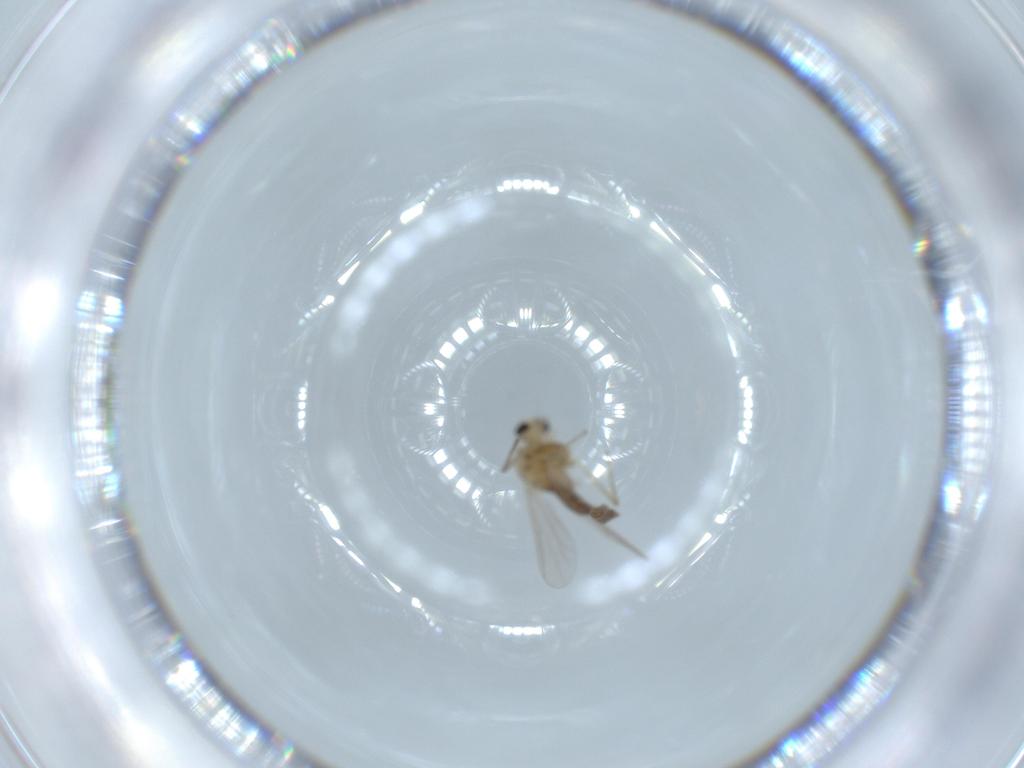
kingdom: Animalia
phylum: Arthropoda
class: Insecta
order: Diptera
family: Chironomidae
